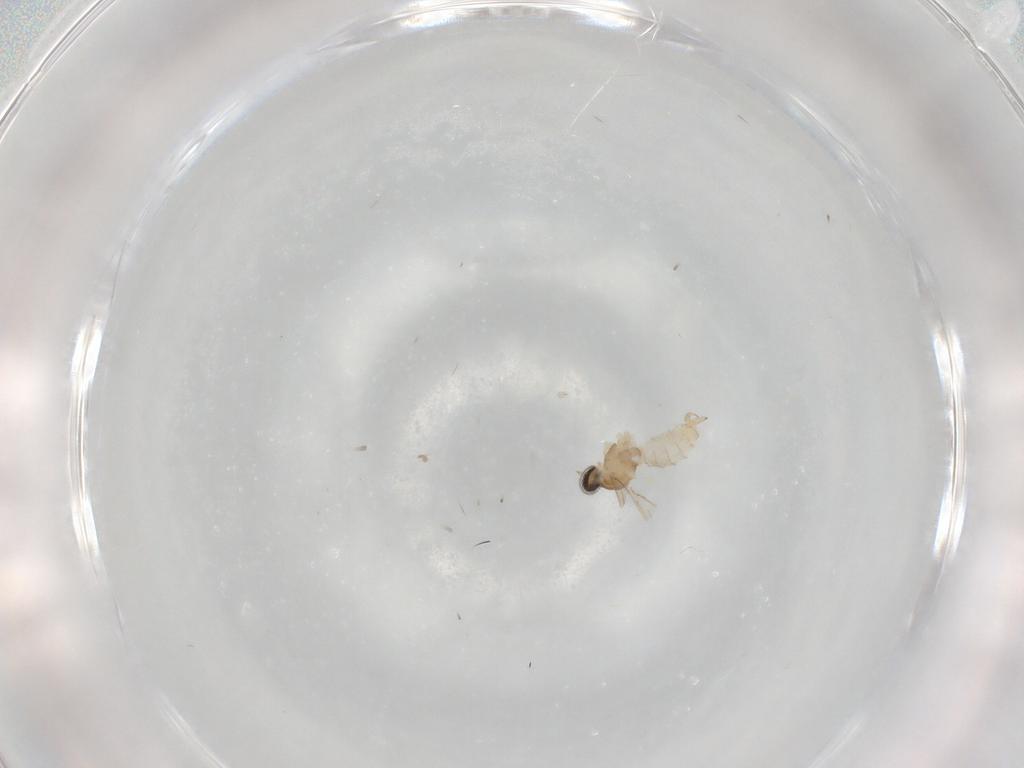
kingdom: Animalia
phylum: Arthropoda
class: Insecta
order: Diptera
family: Cecidomyiidae
